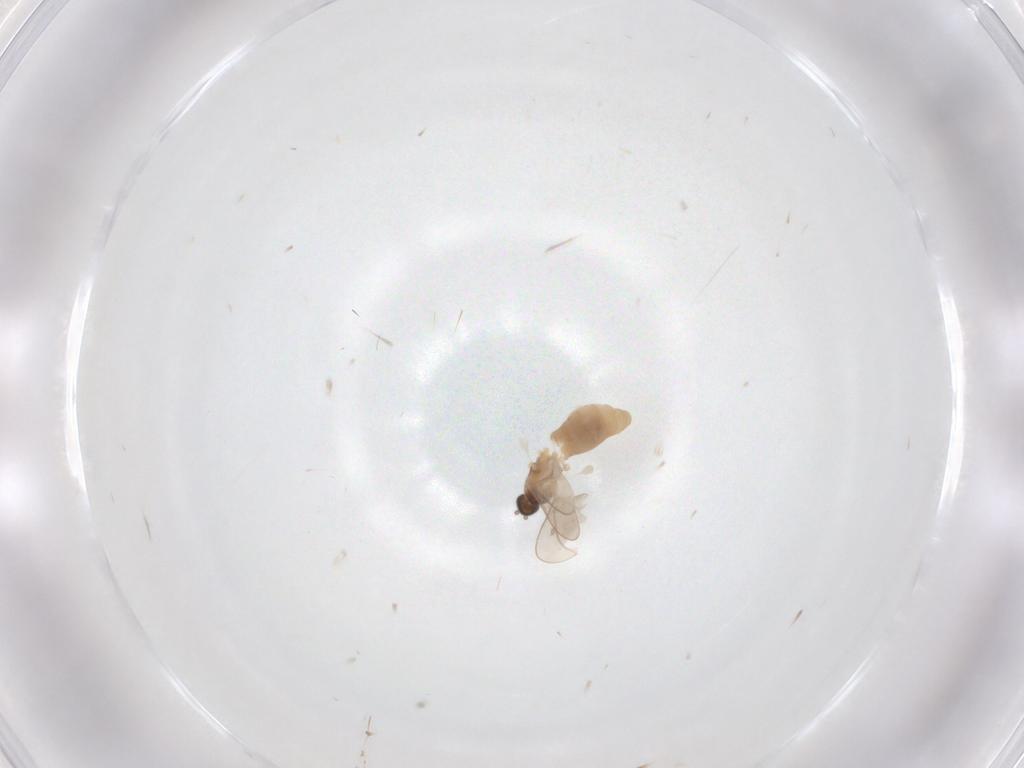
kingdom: Animalia
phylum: Arthropoda
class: Insecta
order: Diptera
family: Cecidomyiidae
